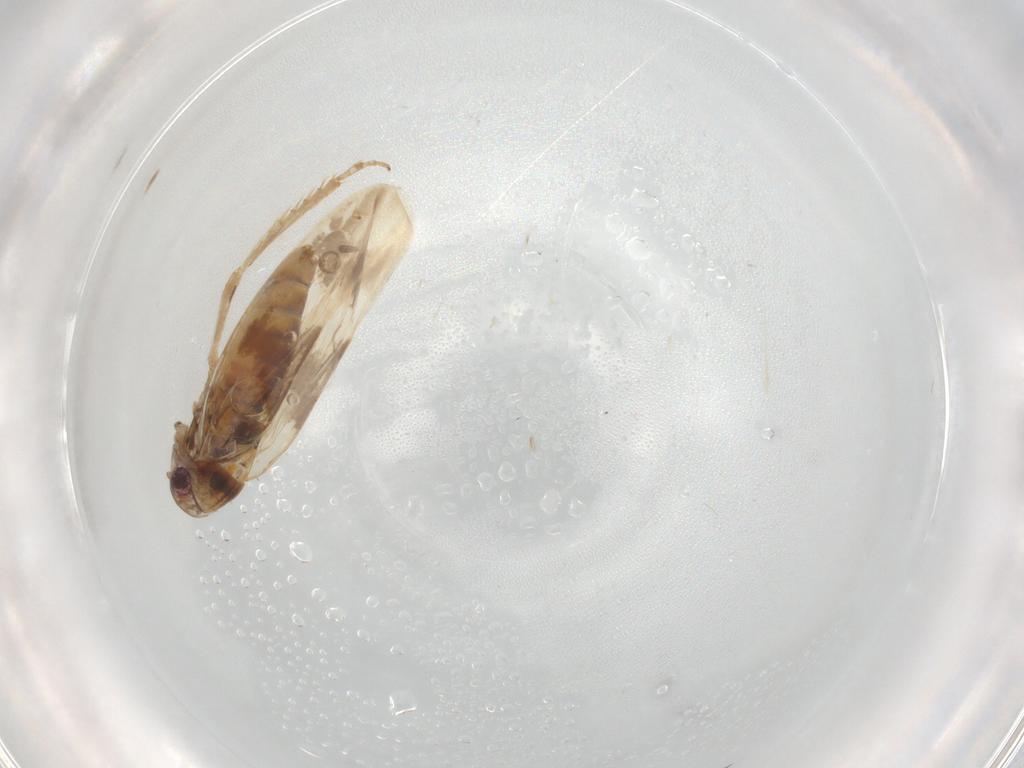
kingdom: Animalia
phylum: Arthropoda
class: Insecta
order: Hemiptera
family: Cicadellidae
